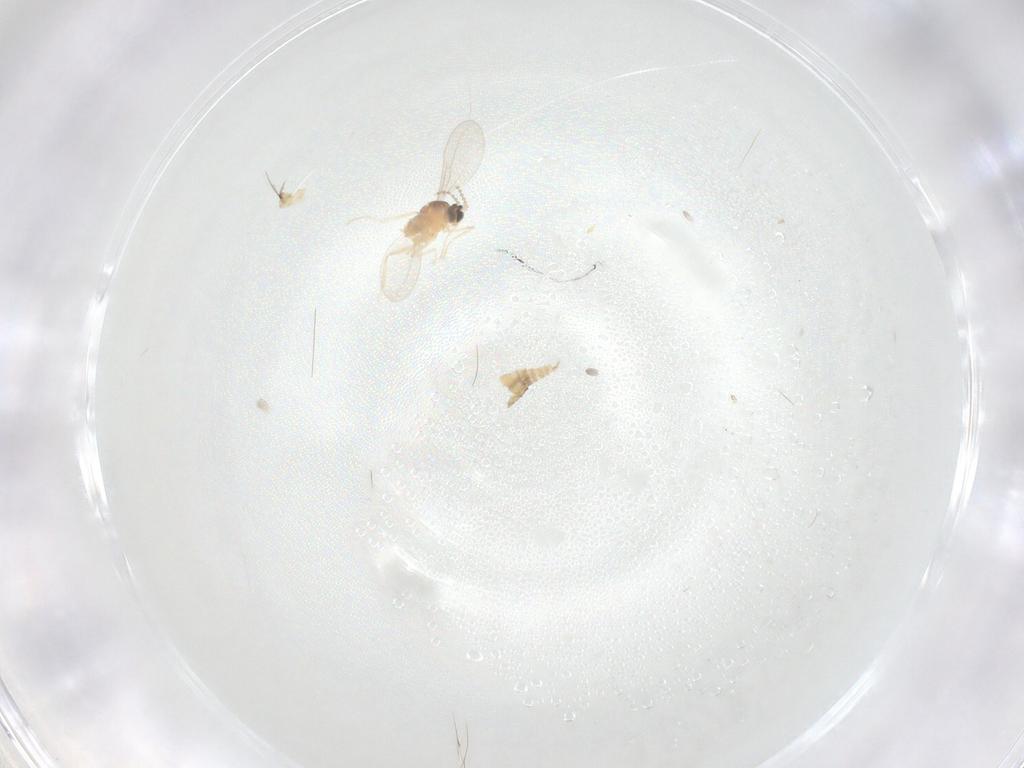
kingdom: Animalia
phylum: Arthropoda
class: Insecta
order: Diptera
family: Cecidomyiidae
